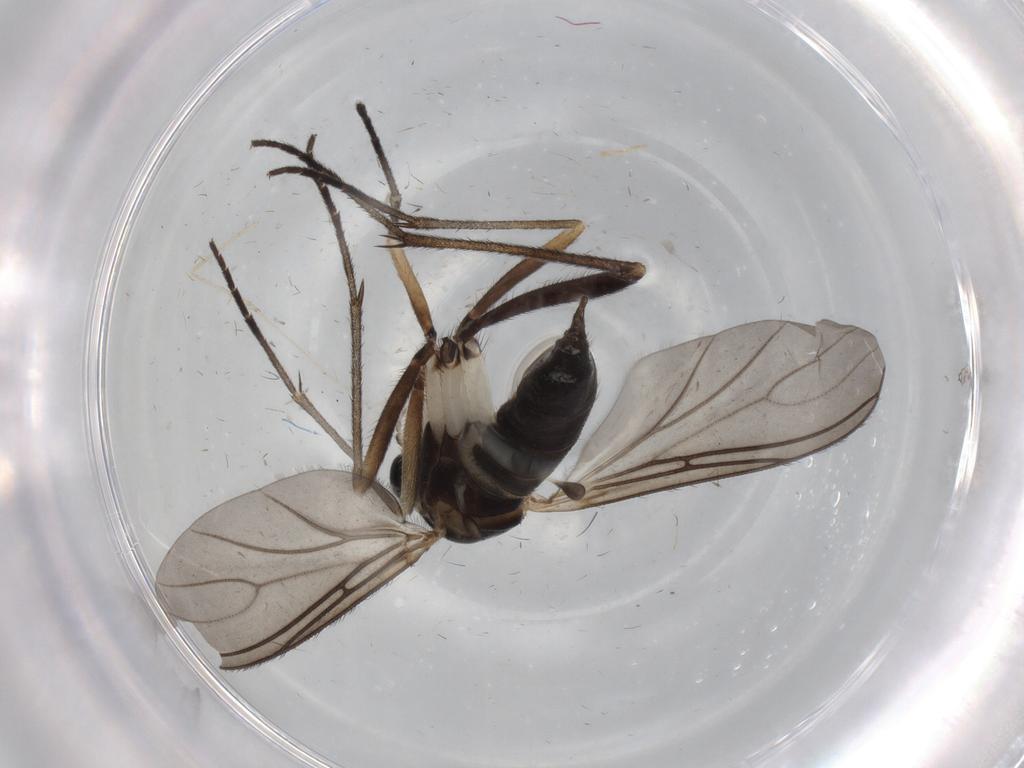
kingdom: Animalia
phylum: Arthropoda
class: Insecta
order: Diptera
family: Sciaridae
